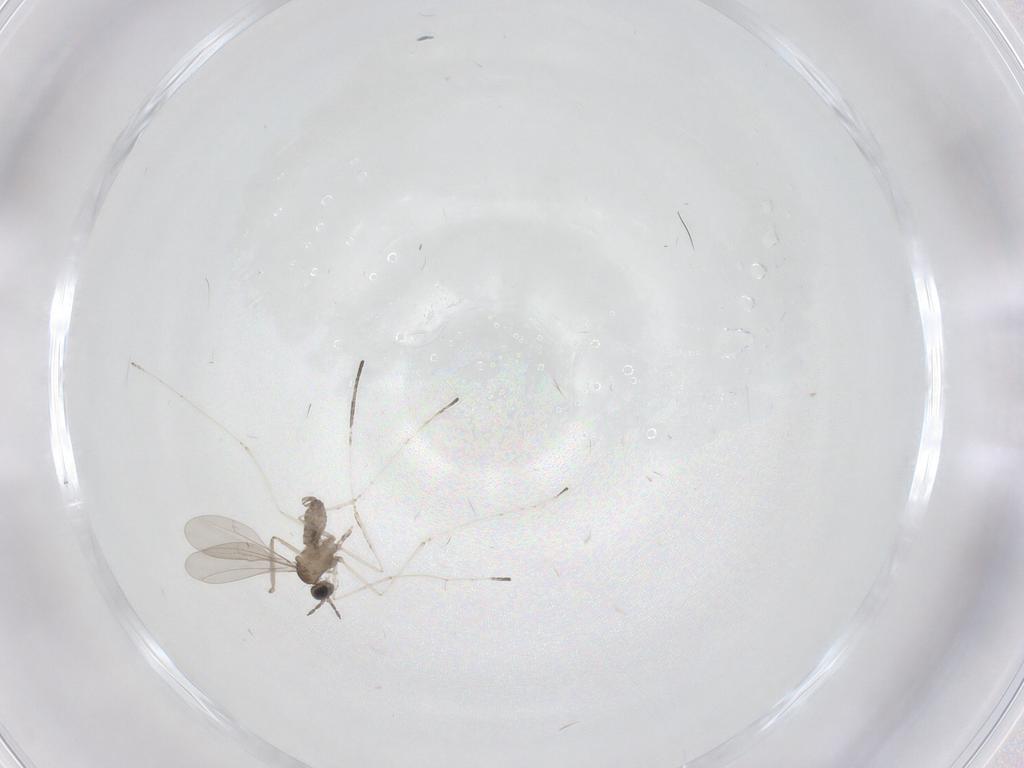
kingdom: Animalia
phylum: Arthropoda
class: Insecta
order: Diptera
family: Cecidomyiidae
